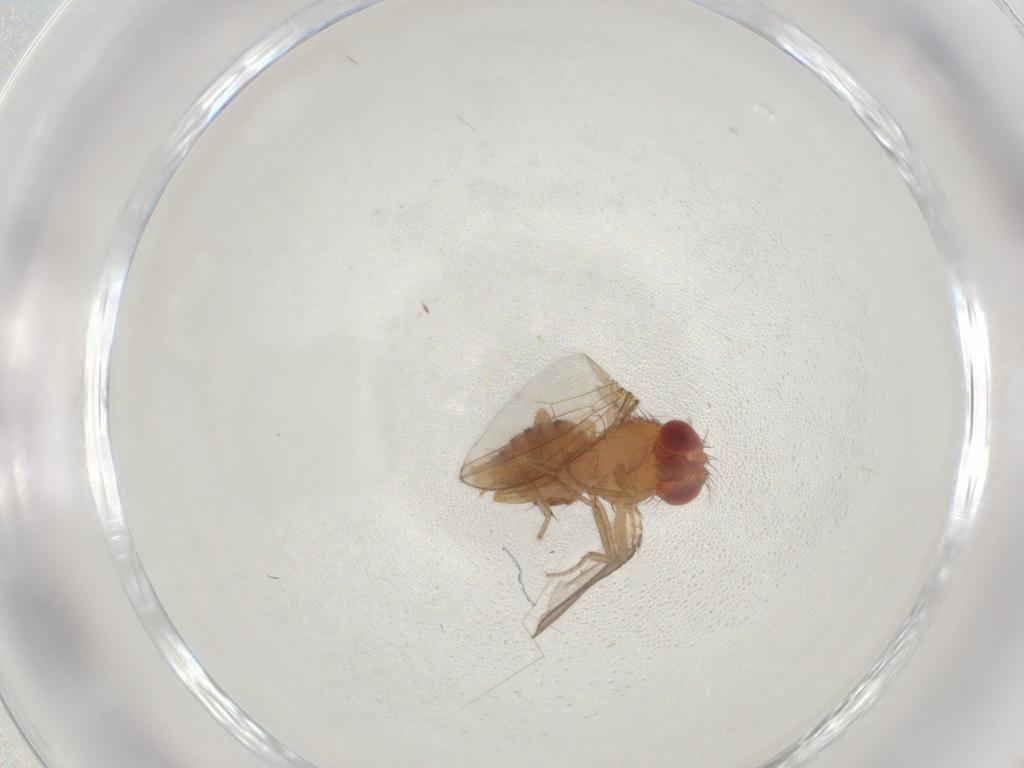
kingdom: Animalia
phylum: Arthropoda
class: Insecta
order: Diptera
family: Drosophilidae
